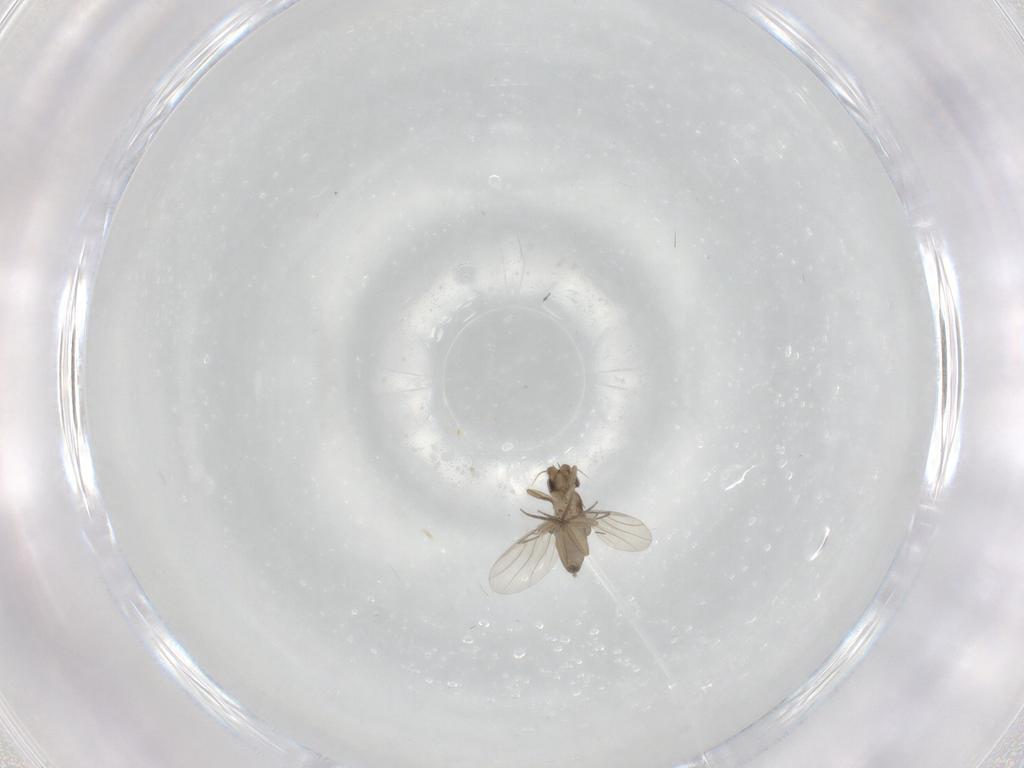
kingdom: Animalia
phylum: Arthropoda
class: Insecta
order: Diptera
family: Phoridae
